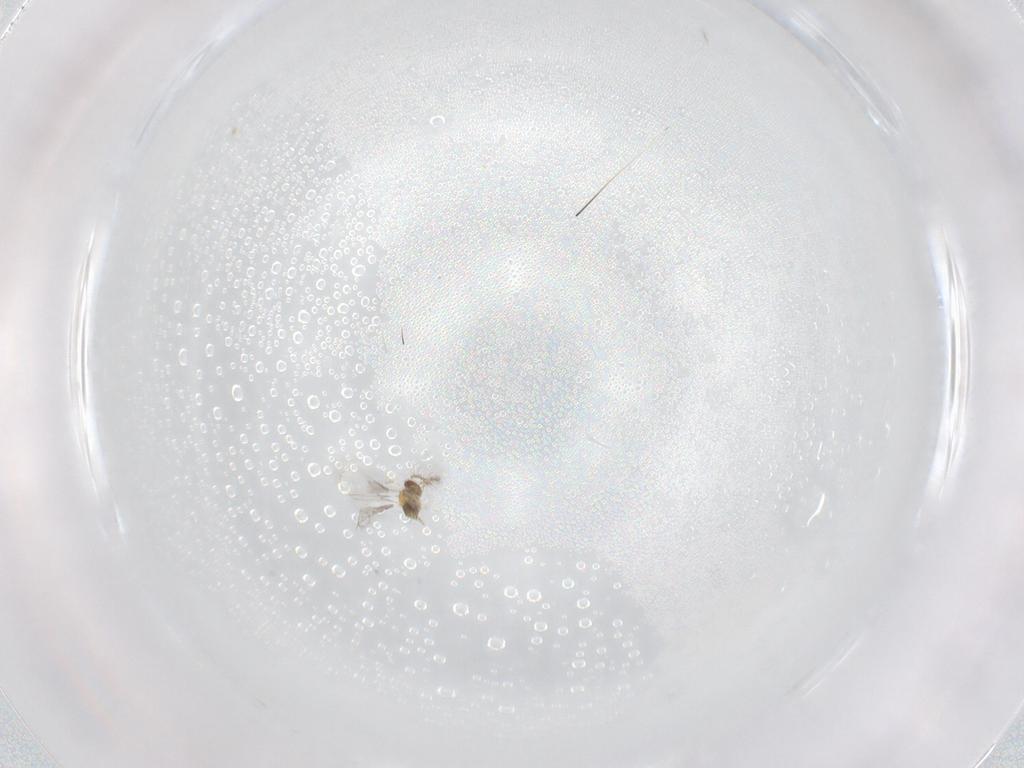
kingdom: Animalia
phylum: Arthropoda
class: Insecta
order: Hymenoptera
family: Trichogrammatidae
